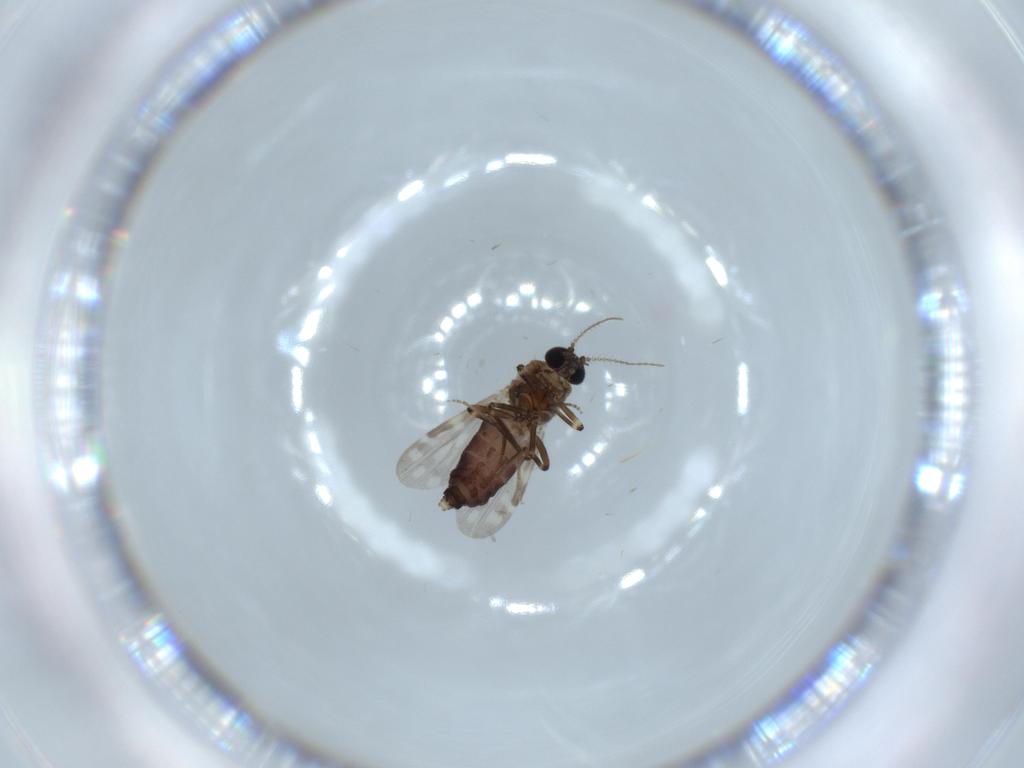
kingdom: Animalia
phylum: Arthropoda
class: Insecta
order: Diptera
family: Ceratopogonidae
